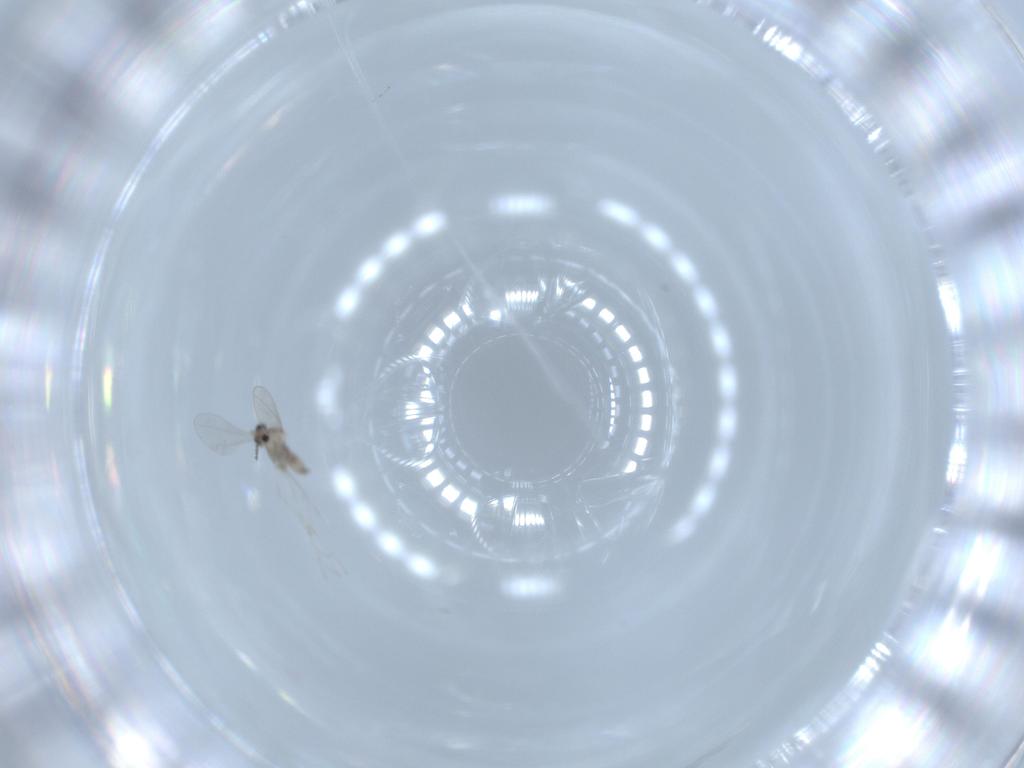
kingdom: Animalia
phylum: Arthropoda
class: Insecta
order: Diptera
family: Cecidomyiidae
